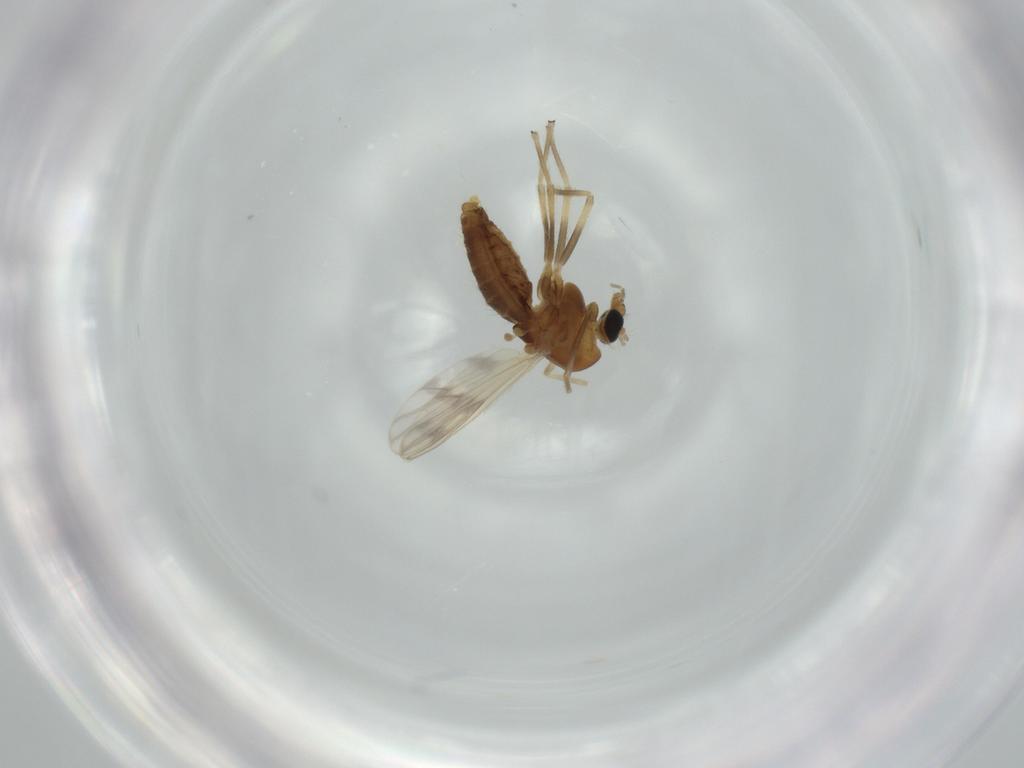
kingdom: Animalia
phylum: Arthropoda
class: Insecta
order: Diptera
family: Chironomidae
